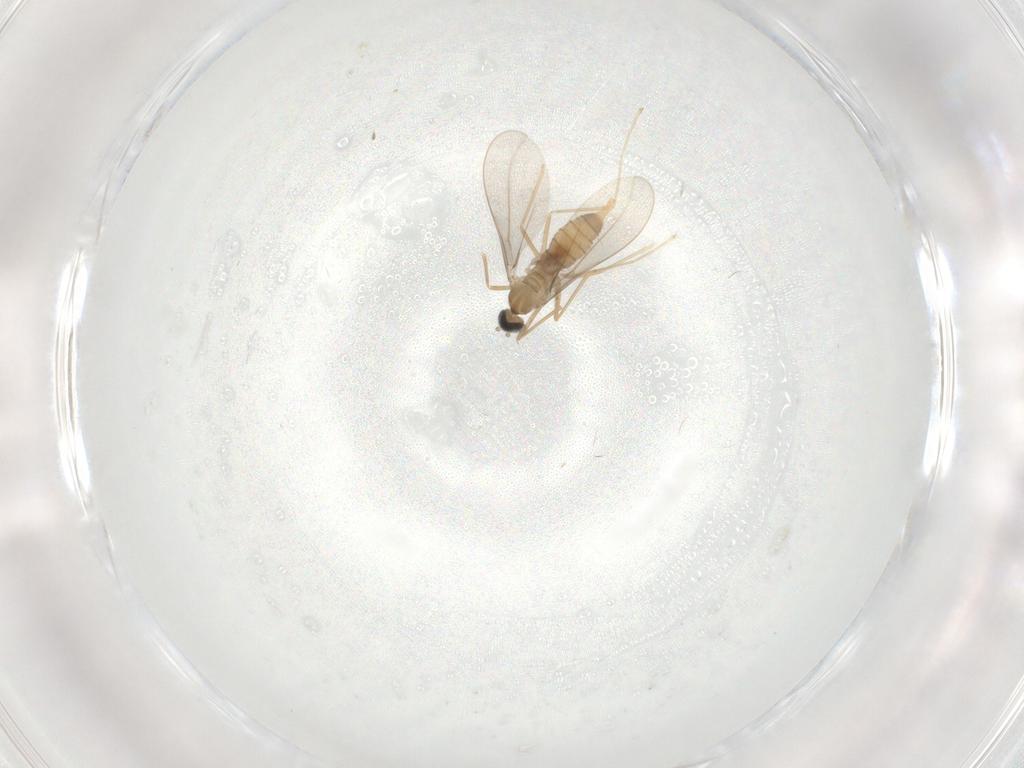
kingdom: Animalia
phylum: Arthropoda
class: Insecta
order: Diptera
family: Cecidomyiidae
